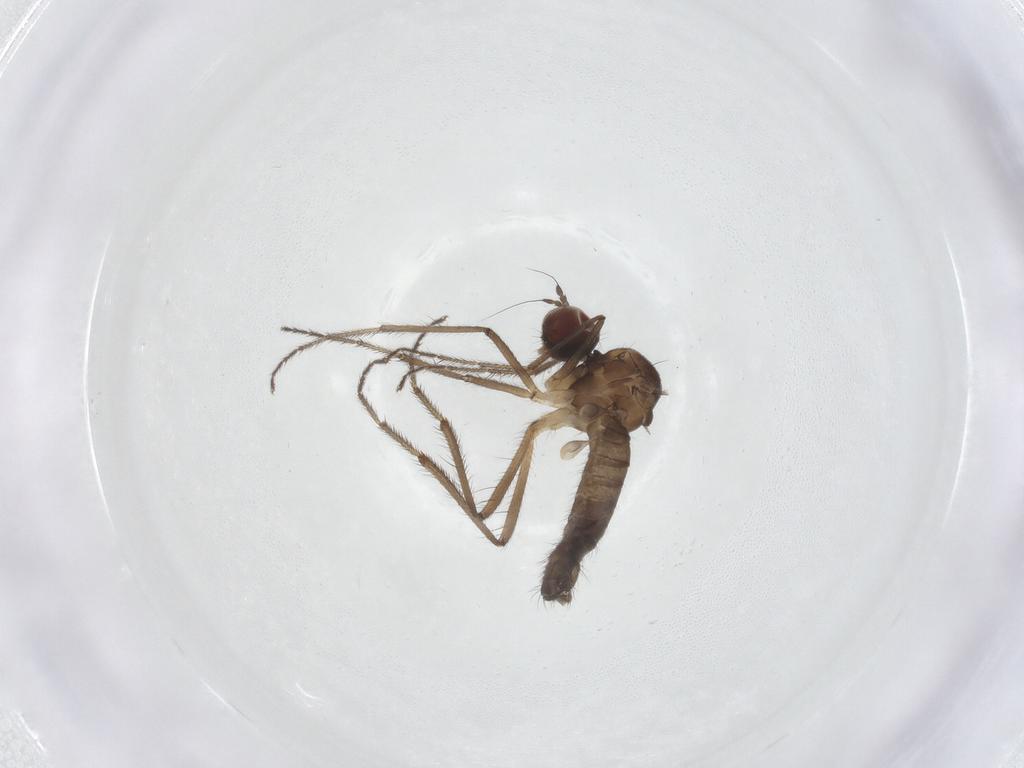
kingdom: Animalia
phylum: Arthropoda
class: Insecta
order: Diptera
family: Hybotidae
